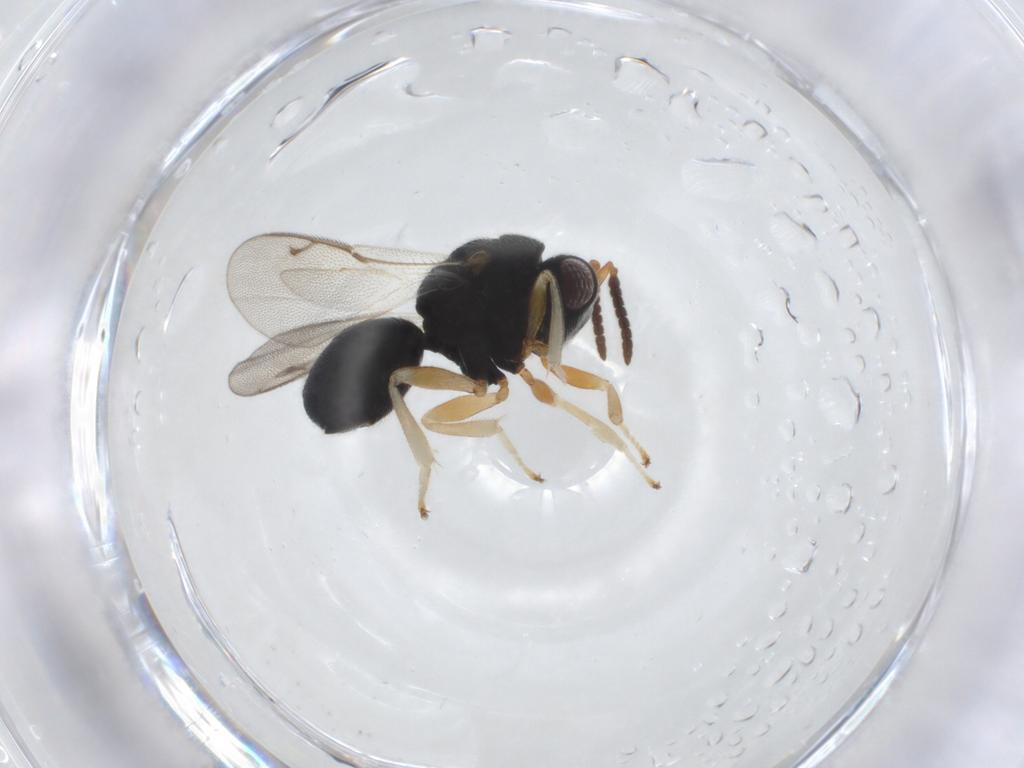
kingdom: Animalia
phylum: Arthropoda
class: Insecta
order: Hymenoptera
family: Eurytomidae
